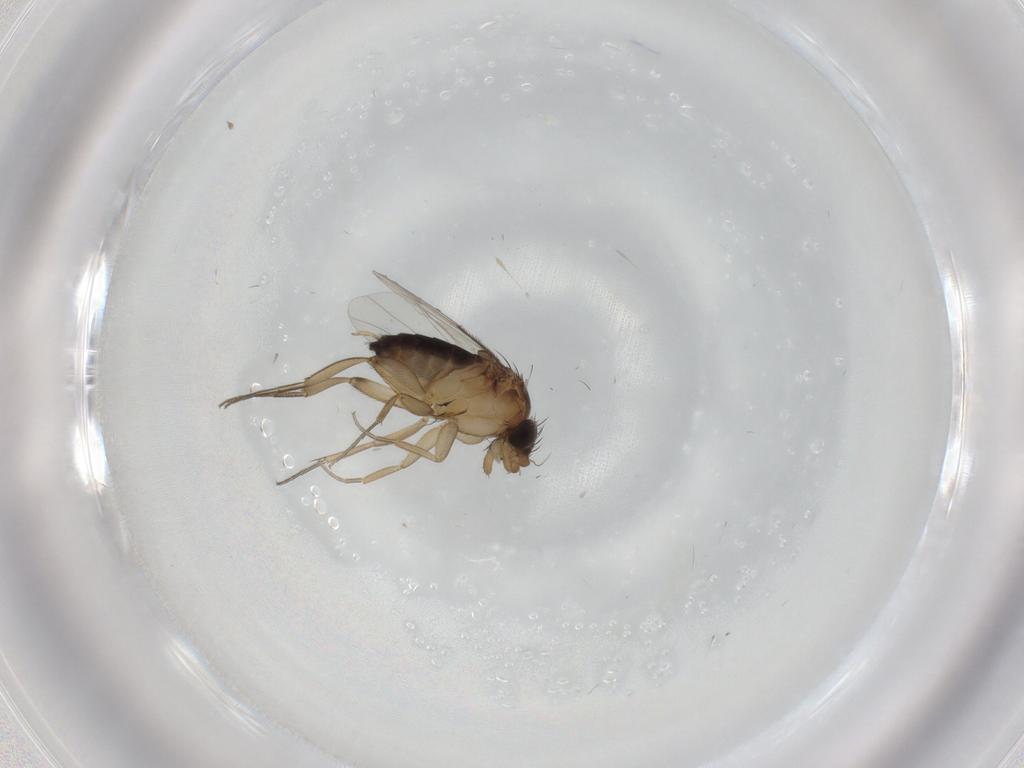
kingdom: Animalia
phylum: Arthropoda
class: Insecta
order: Diptera
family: Phoridae
